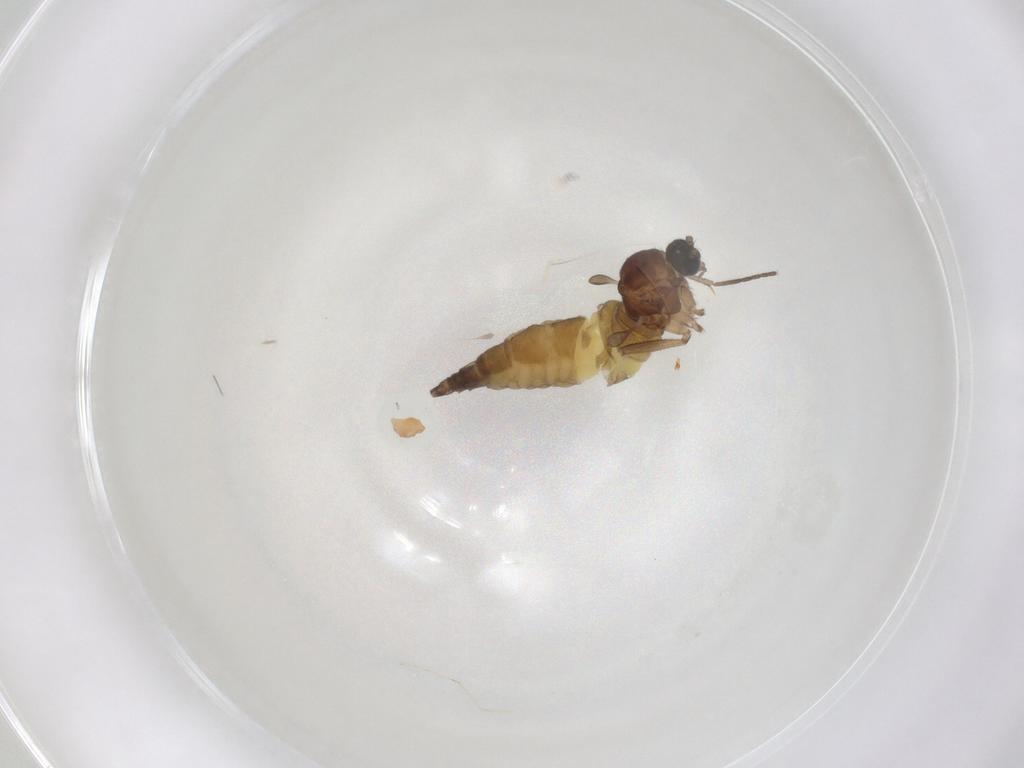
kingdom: Animalia
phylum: Arthropoda
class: Insecta
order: Diptera
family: Sciaridae
